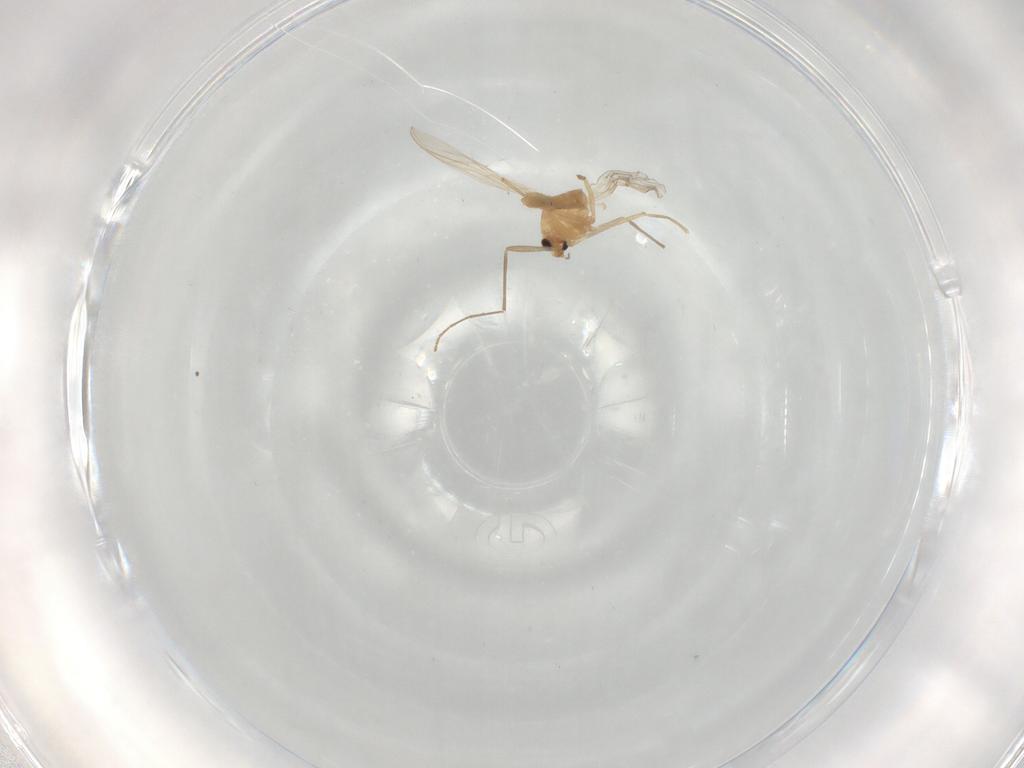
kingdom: Animalia
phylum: Arthropoda
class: Insecta
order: Diptera
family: Chironomidae
